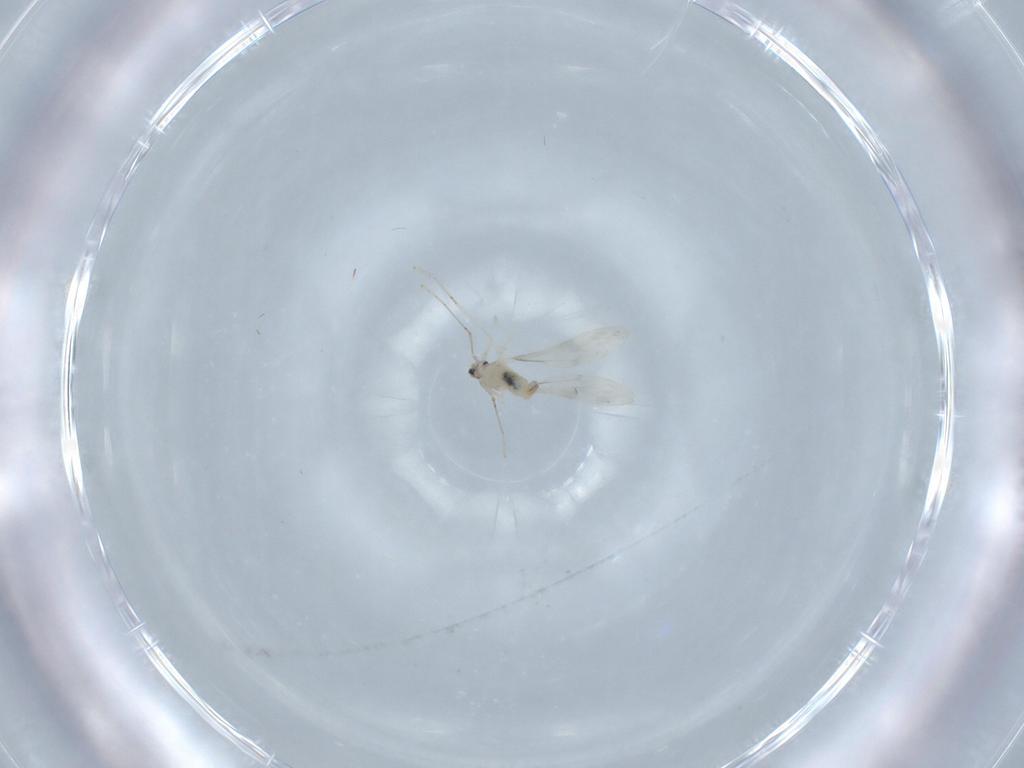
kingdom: Animalia
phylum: Arthropoda
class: Insecta
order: Diptera
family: Cecidomyiidae
